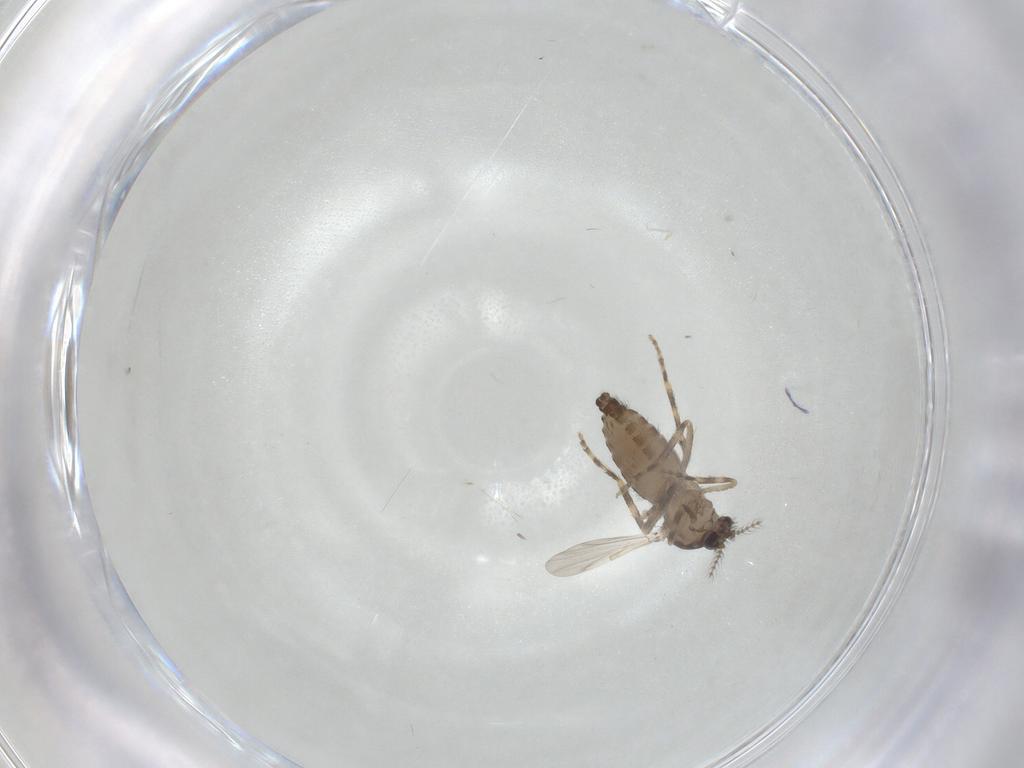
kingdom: Animalia
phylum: Arthropoda
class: Insecta
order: Diptera
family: Ceratopogonidae
